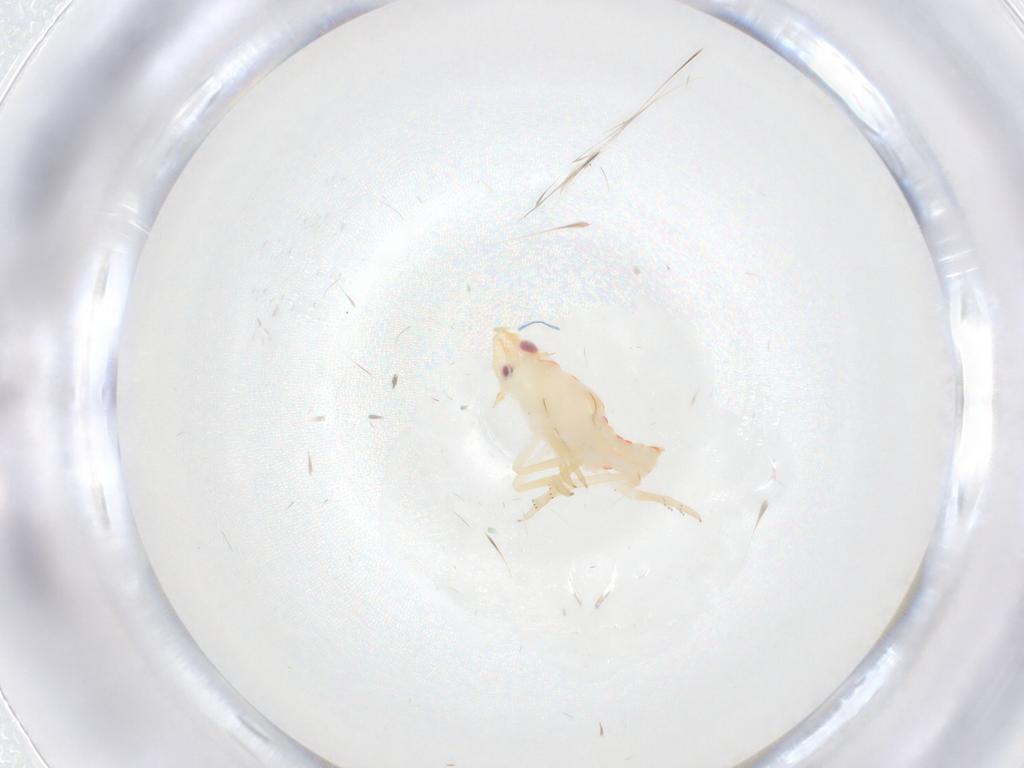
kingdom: Animalia
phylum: Arthropoda
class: Insecta
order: Hemiptera
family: Flatidae
